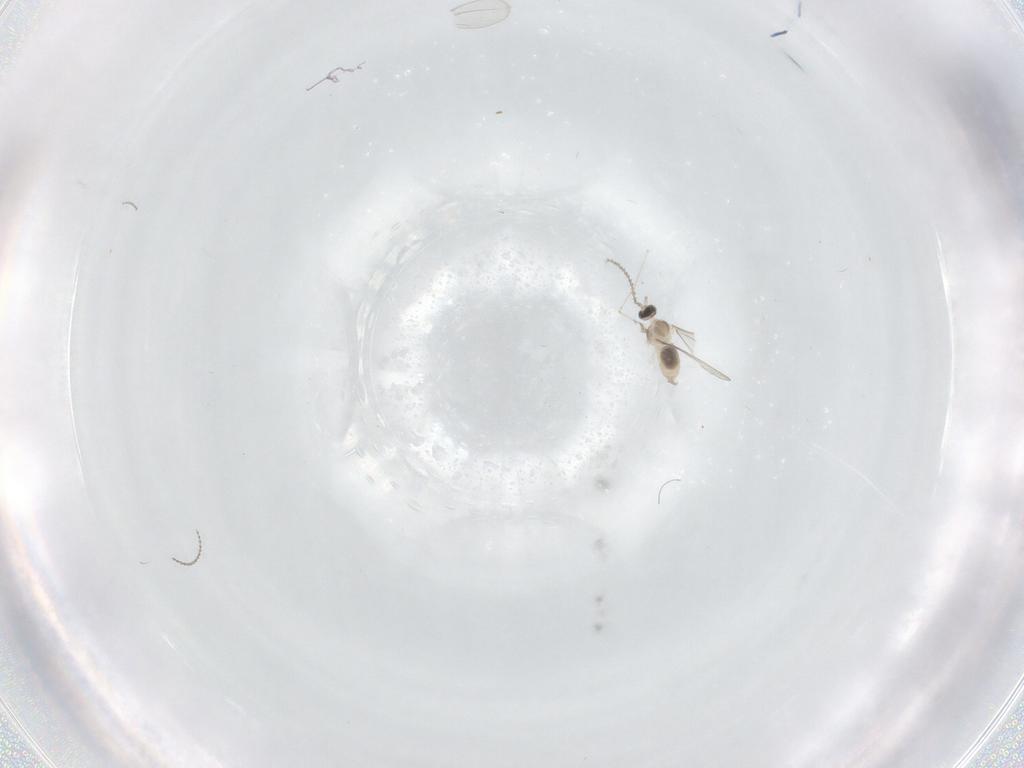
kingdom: Animalia
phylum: Arthropoda
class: Insecta
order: Diptera
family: Cecidomyiidae
